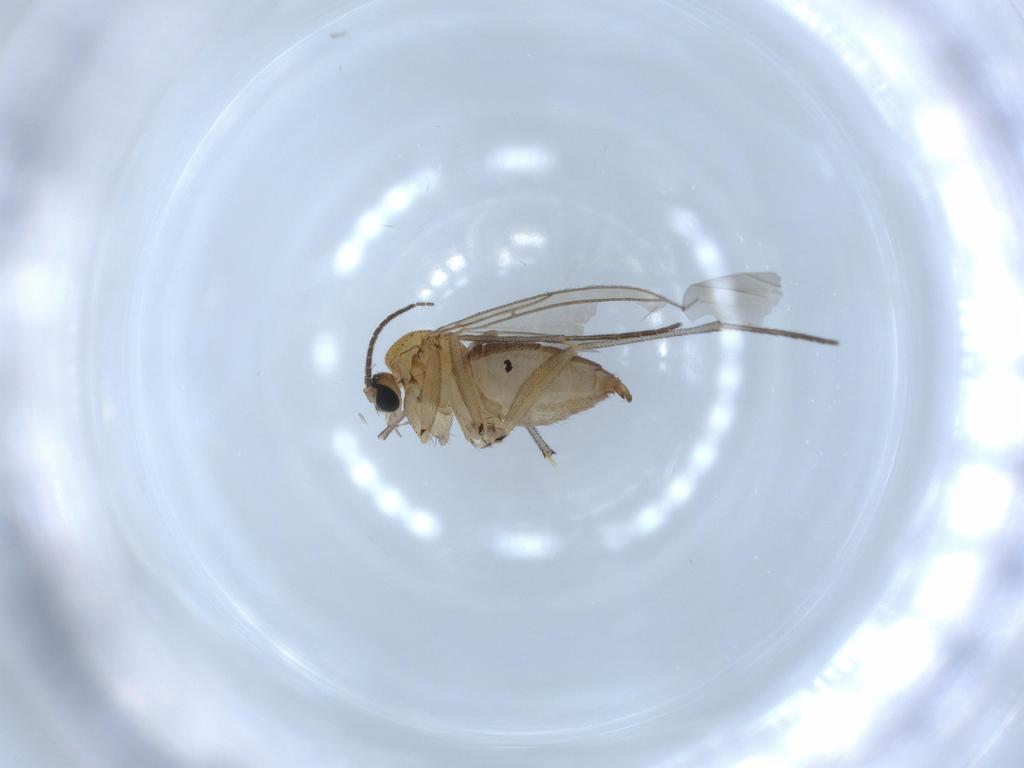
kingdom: Animalia
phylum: Arthropoda
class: Insecta
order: Diptera
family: Sciaridae
